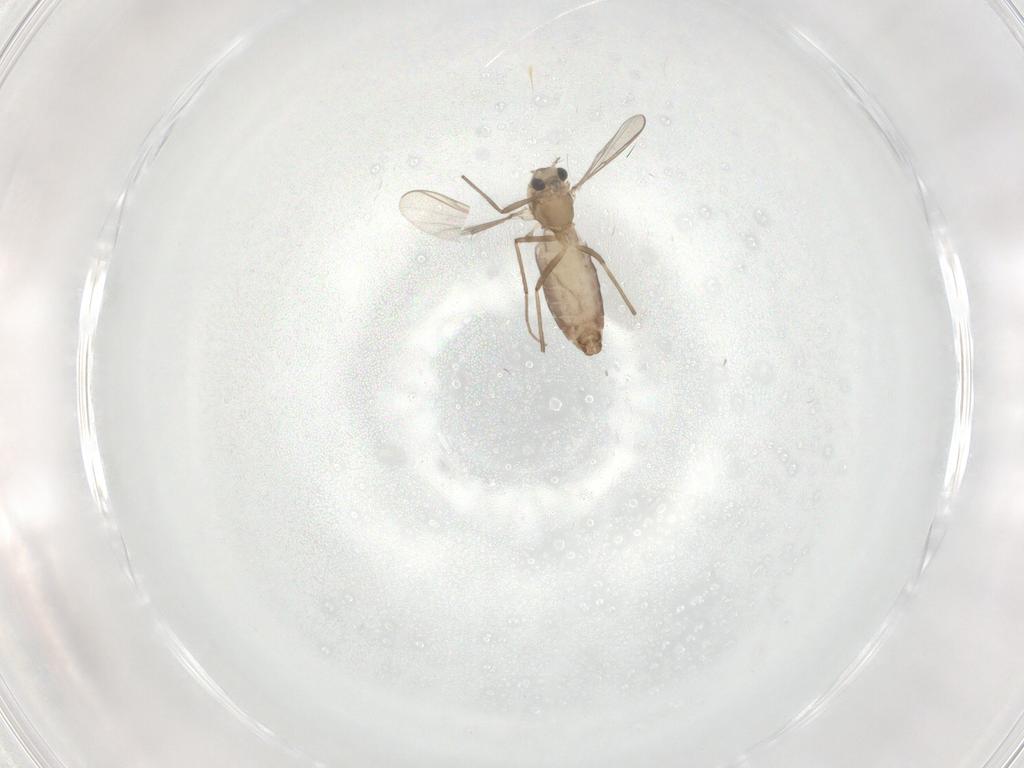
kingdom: Animalia
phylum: Arthropoda
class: Insecta
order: Diptera
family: Chironomidae
